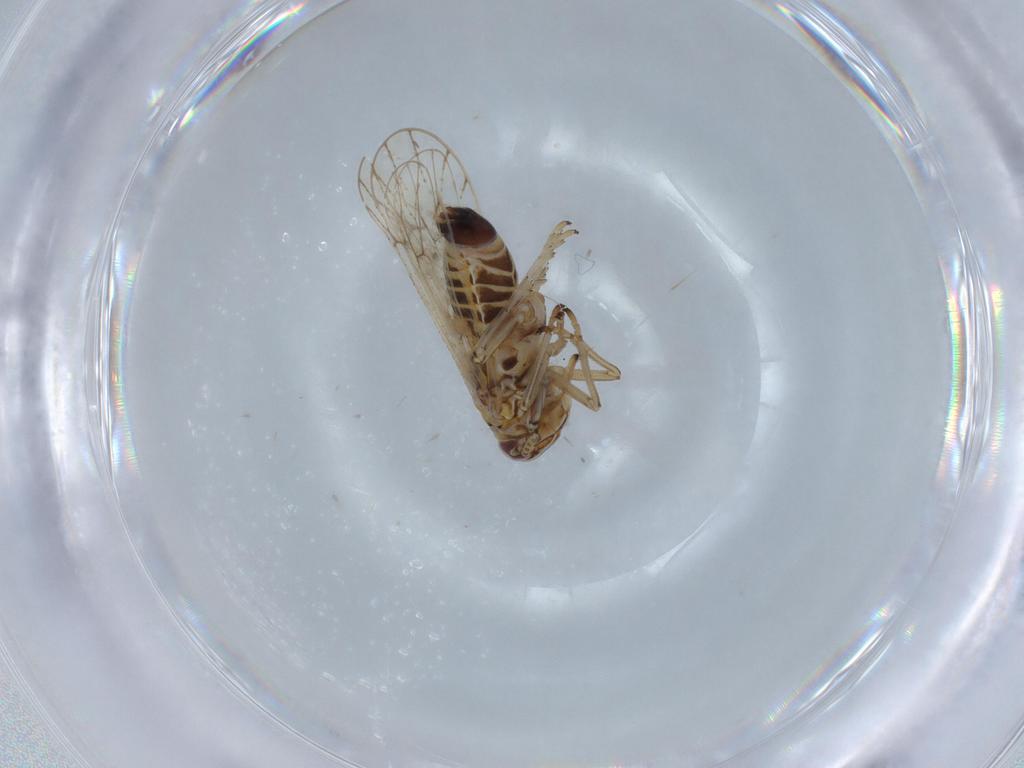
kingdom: Animalia
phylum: Arthropoda
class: Insecta
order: Hemiptera
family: Delphacidae
